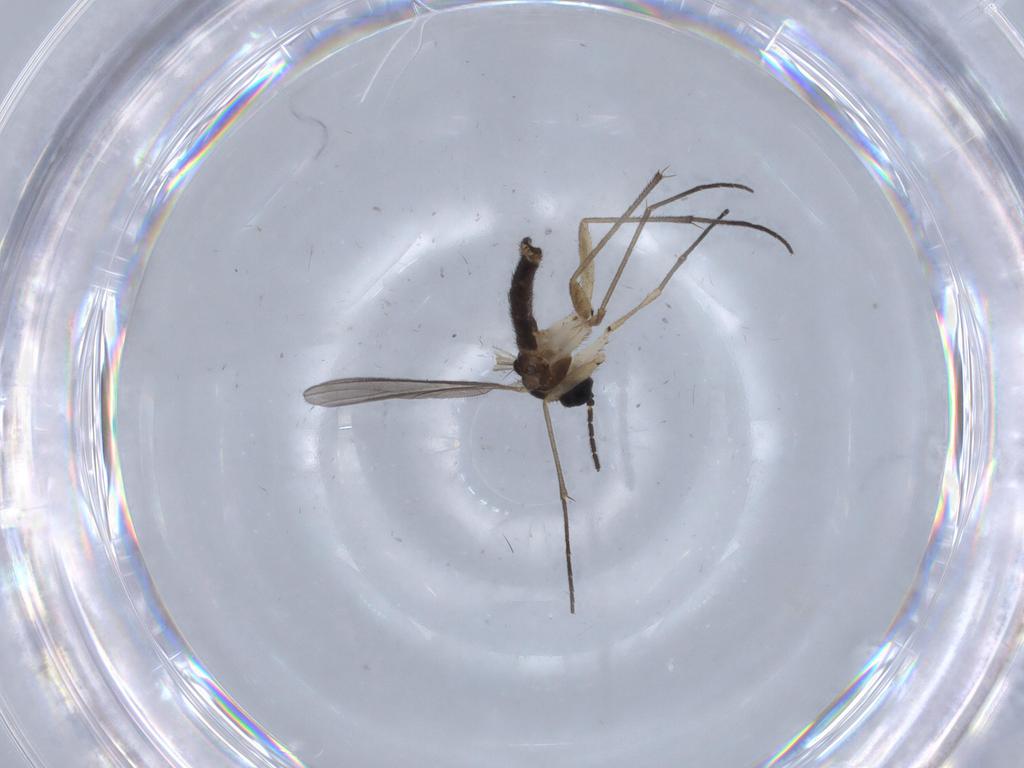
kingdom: Animalia
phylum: Arthropoda
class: Insecta
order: Diptera
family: Sciaridae
